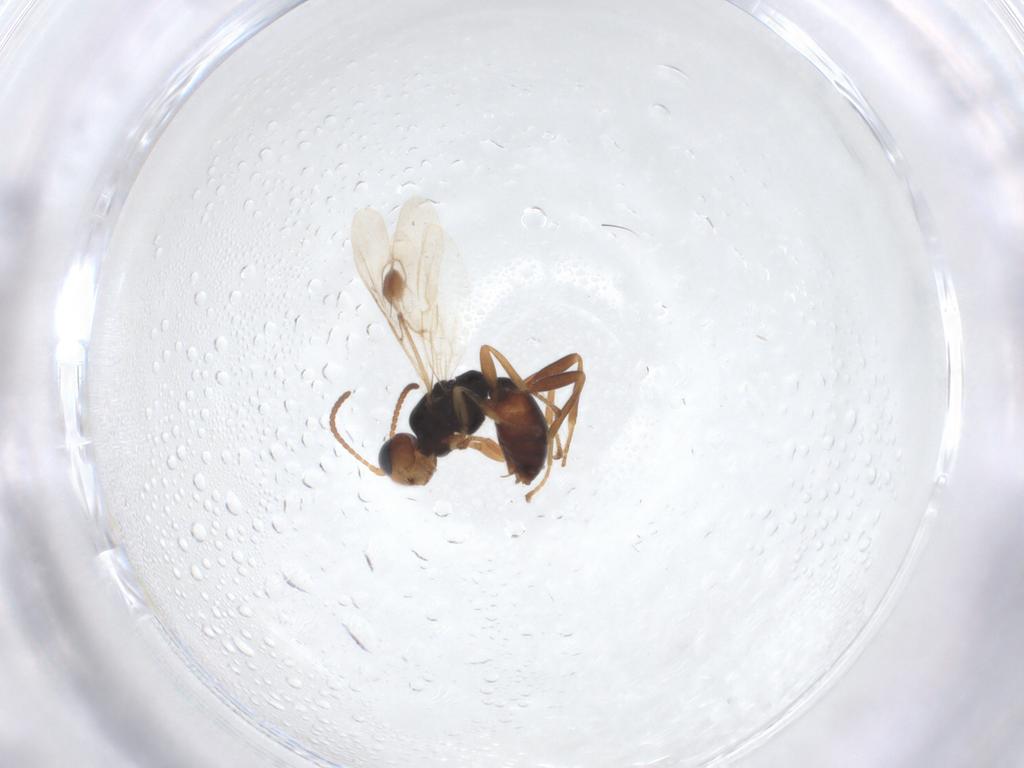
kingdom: Animalia
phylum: Arthropoda
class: Insecta
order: Hymenoptera
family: Braconidae
